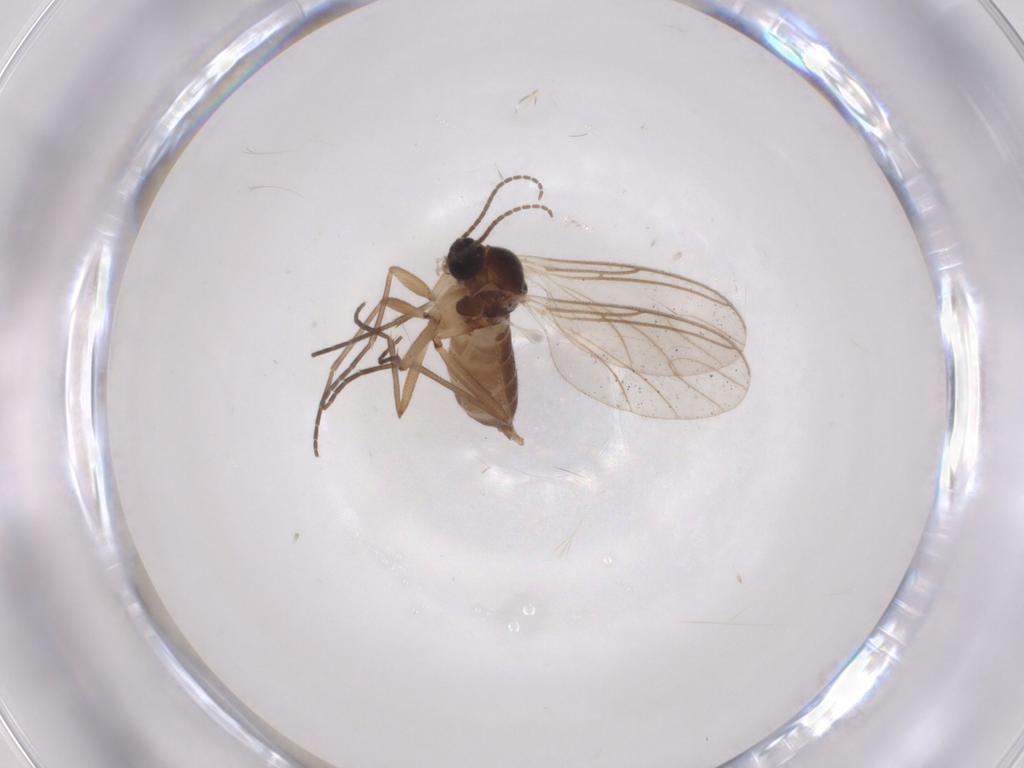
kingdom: Animalia
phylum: Arthropoda
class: Insecta
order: Diptera
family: Sciaridae
